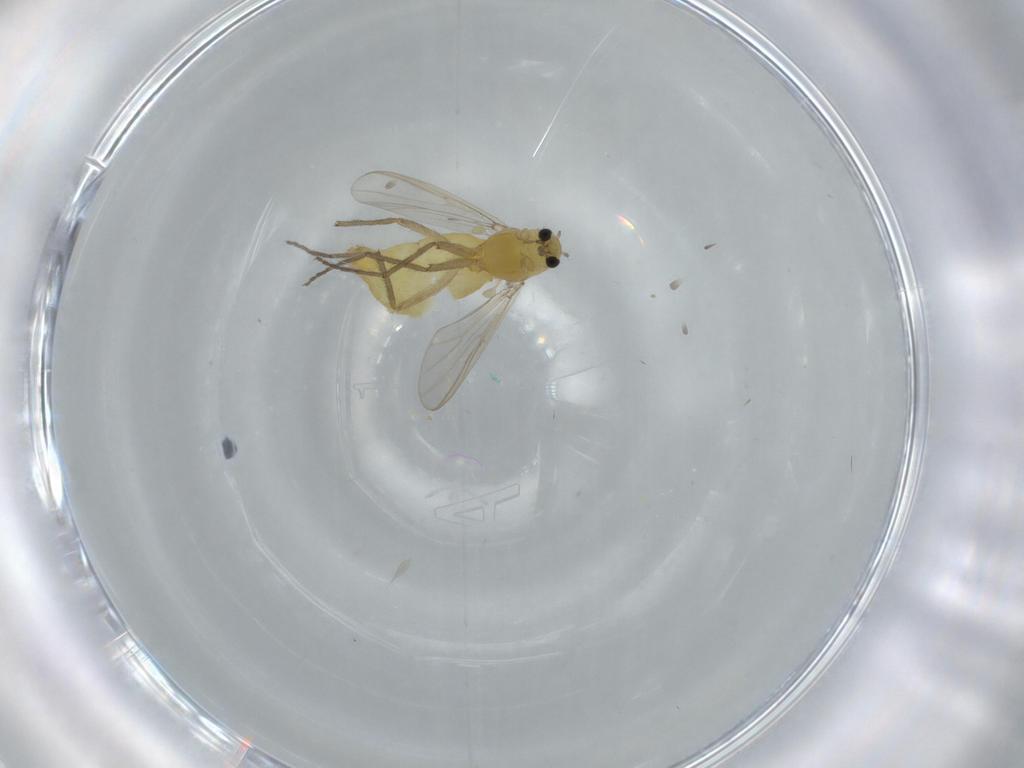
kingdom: Animalia
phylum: Arthropoda
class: Insecta
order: Diptera
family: Chironomidae
